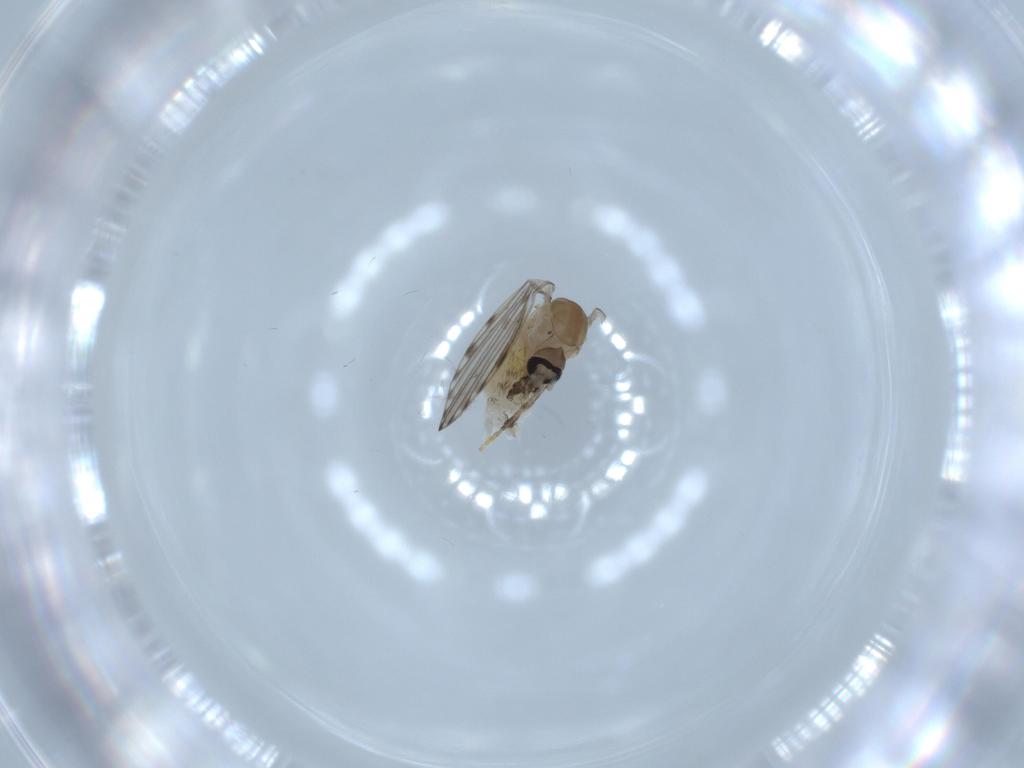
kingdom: Animalia
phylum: Arthropoda
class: Insecta
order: Diptera
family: Psychodidae
